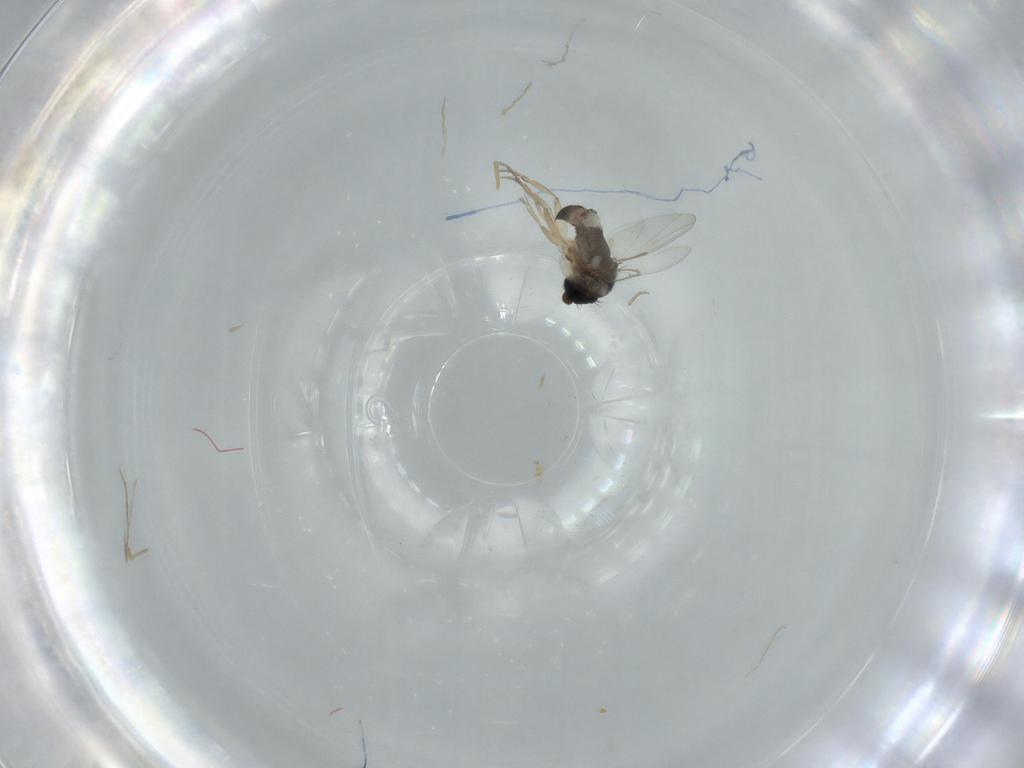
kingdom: Animalia
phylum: Arthropoda
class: Insecta
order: Diptera
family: Phoridae
